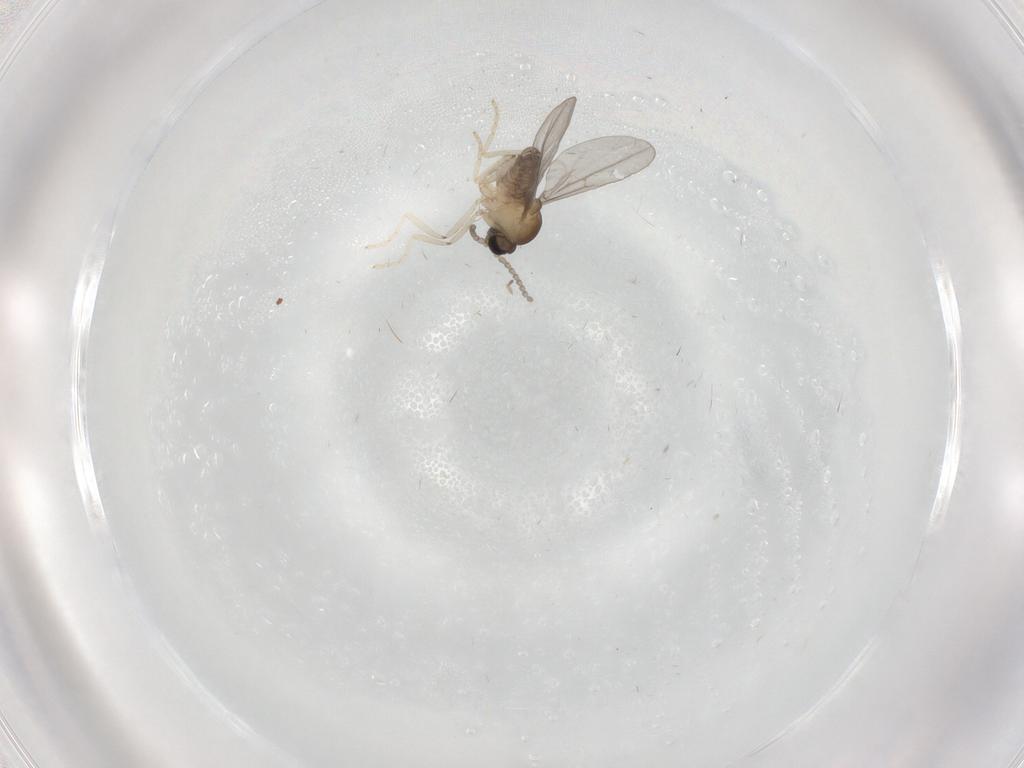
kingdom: Animalia
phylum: Arthropoda
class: Insecta
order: Diptera
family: Cecidomyiidae
